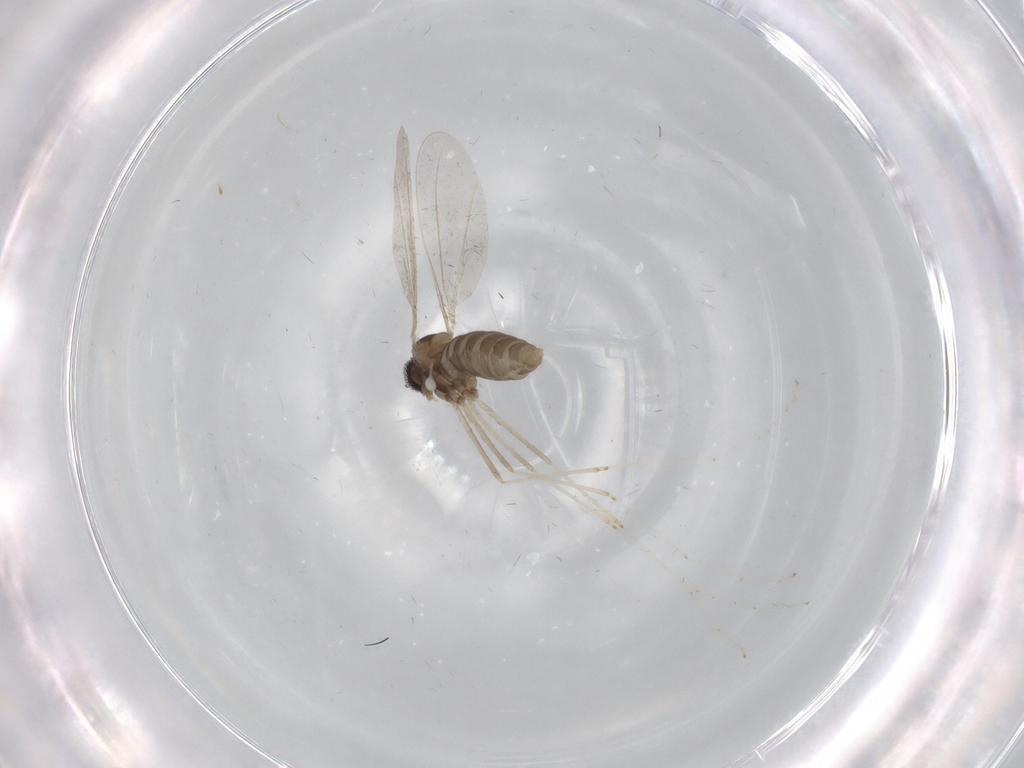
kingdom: Animalia
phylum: Arthropoda
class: Insecta
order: Diptera
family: Cecidomyiidae
